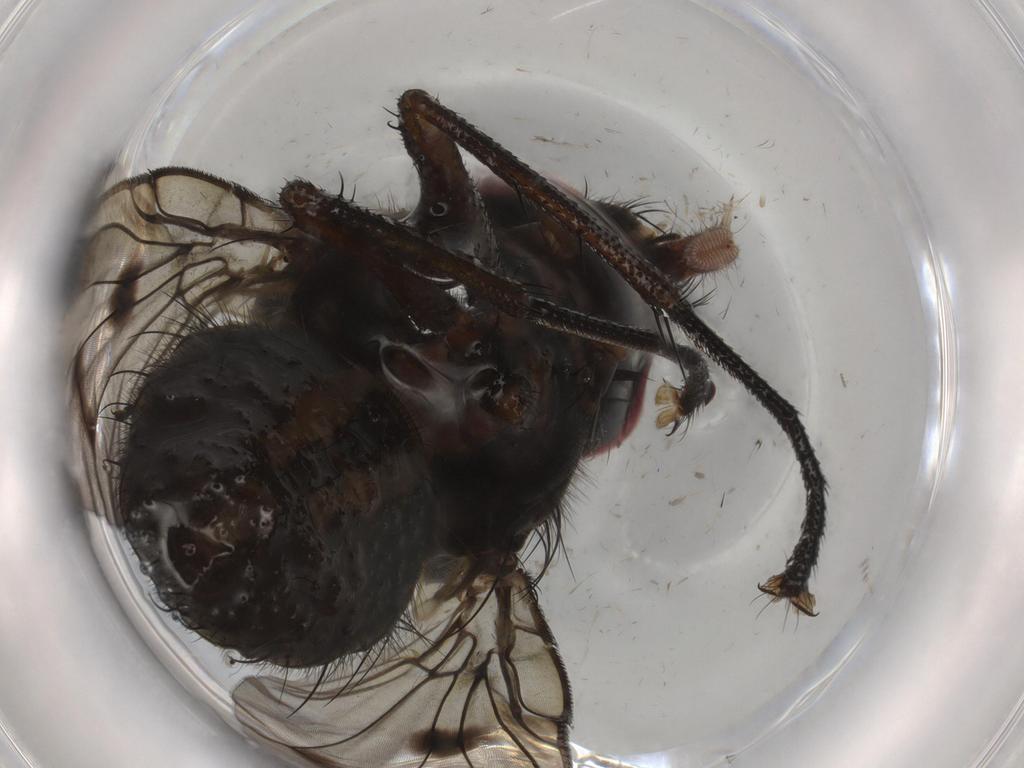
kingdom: Animalia
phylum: Arthropoda
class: Insecta
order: Diptera
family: Muscidae
